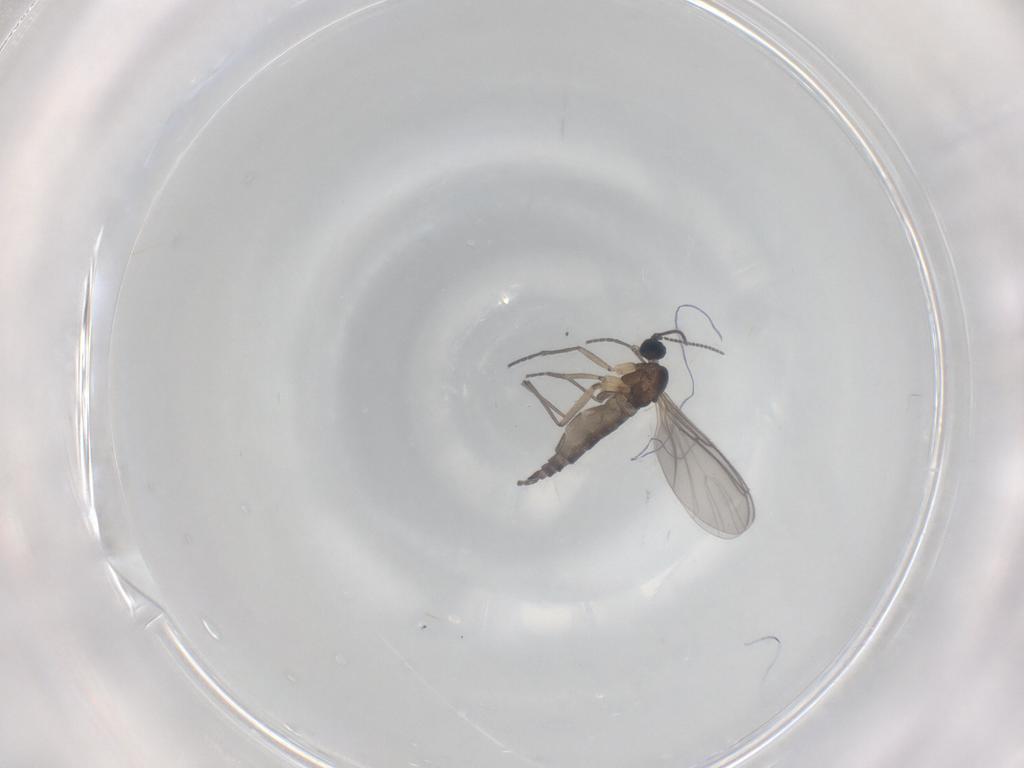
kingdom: Animalia
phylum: Arthropoda
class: Insecta
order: Diptera
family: Sciaridae
